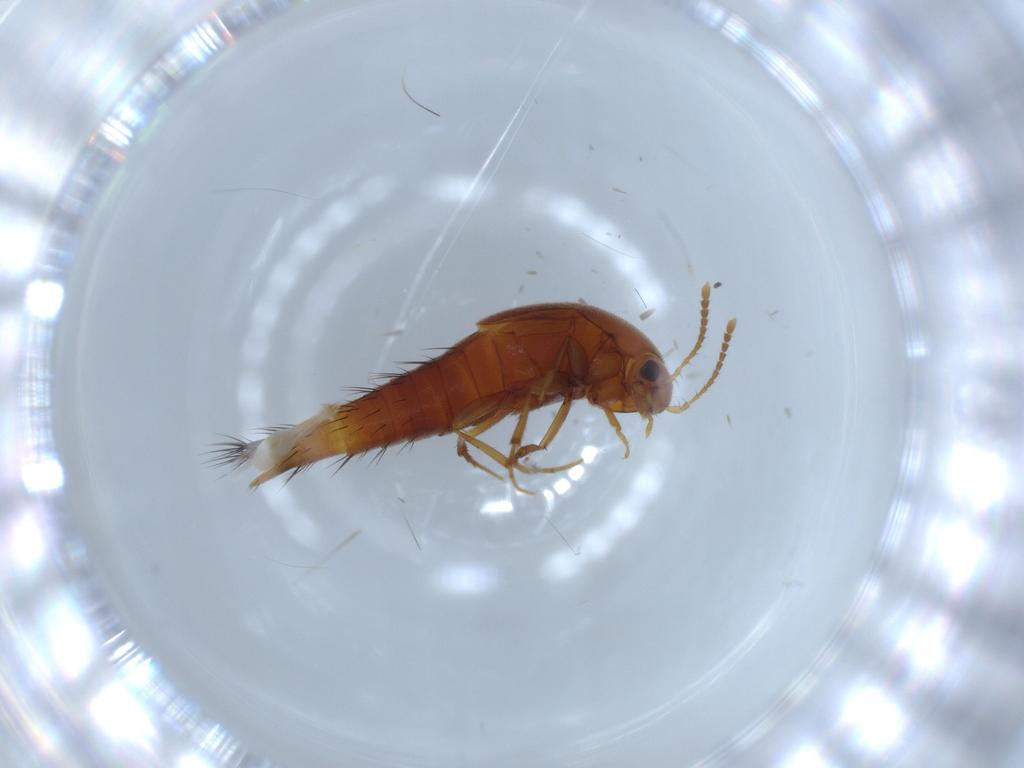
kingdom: Animalia
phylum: Arthropoda
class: Insecta
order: Coleoptera
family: Staphylinidae
